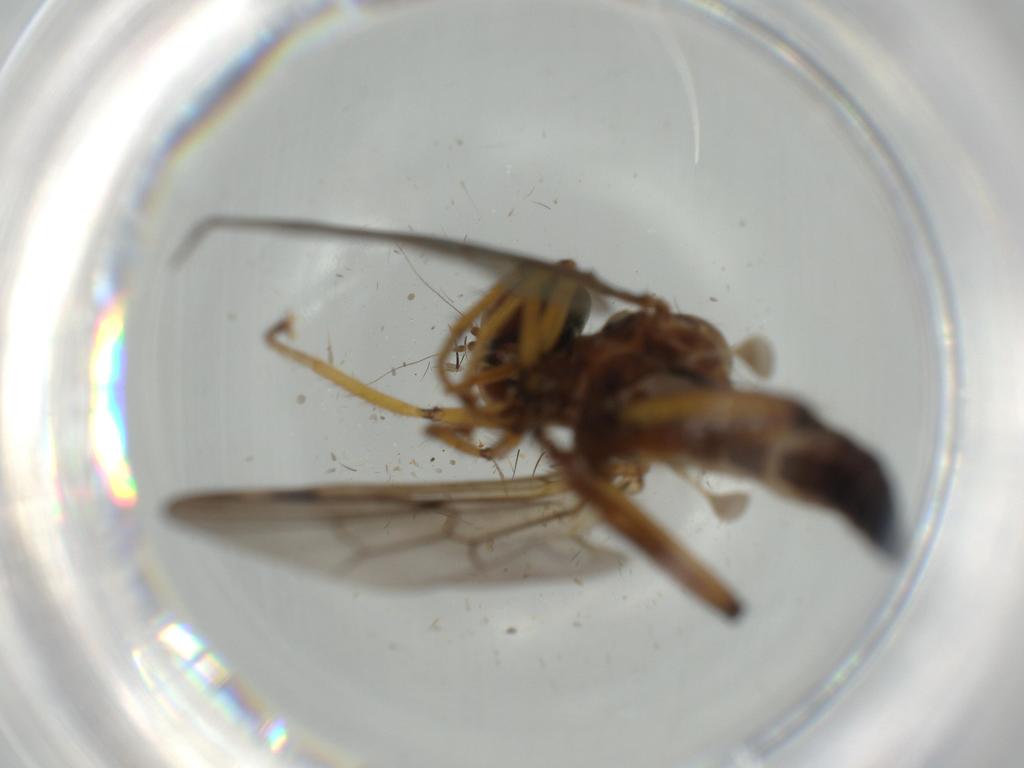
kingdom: Animalia
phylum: Arthropoda
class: Insecta
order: Diptera
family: Hybotidae
